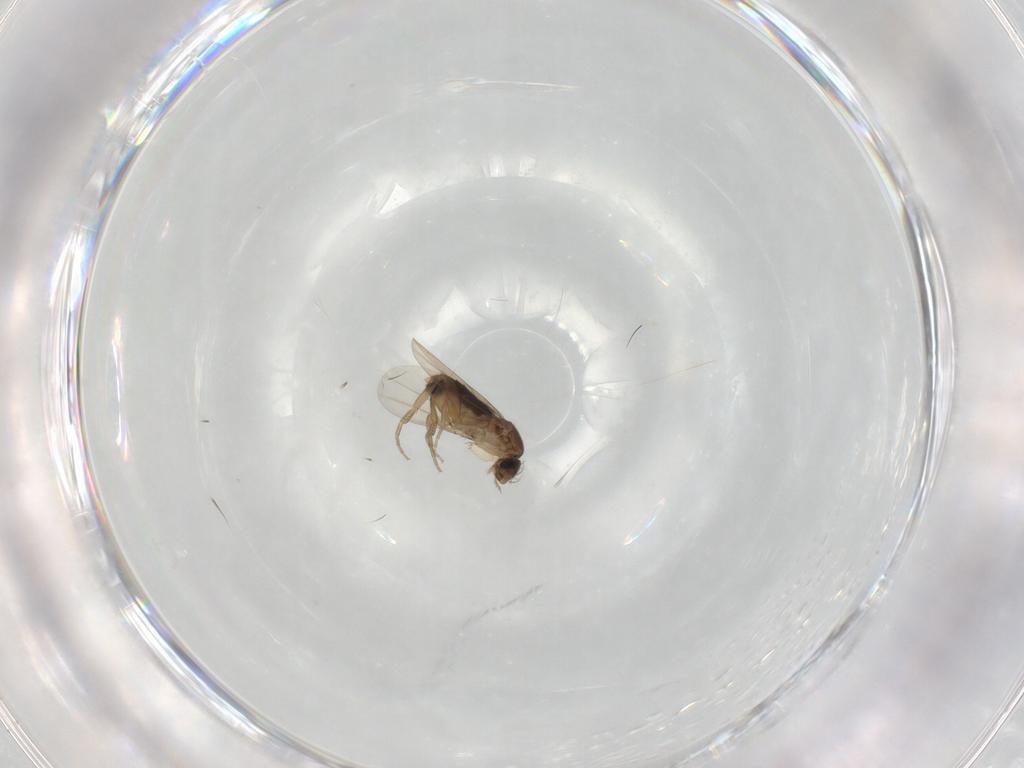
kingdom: Animalia
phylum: Arthropoda
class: Insecta
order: Diptera
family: Phoridae
